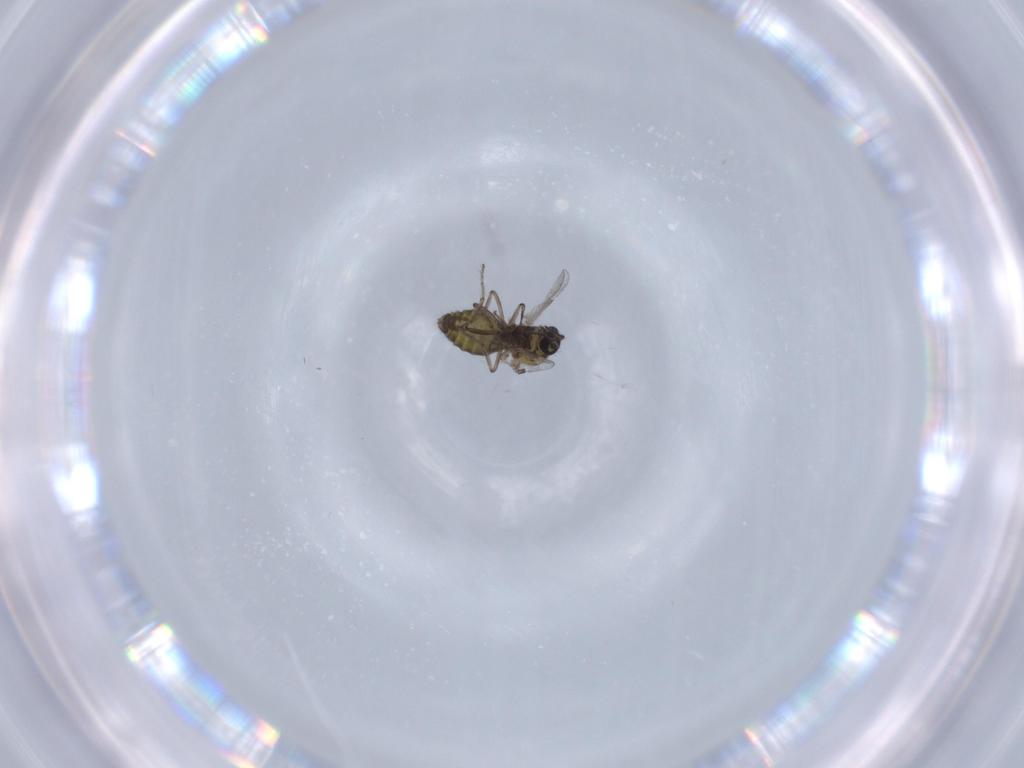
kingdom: Animalia
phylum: Arthropoda
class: Insecta
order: Diptera
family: Ceratopogonidae
